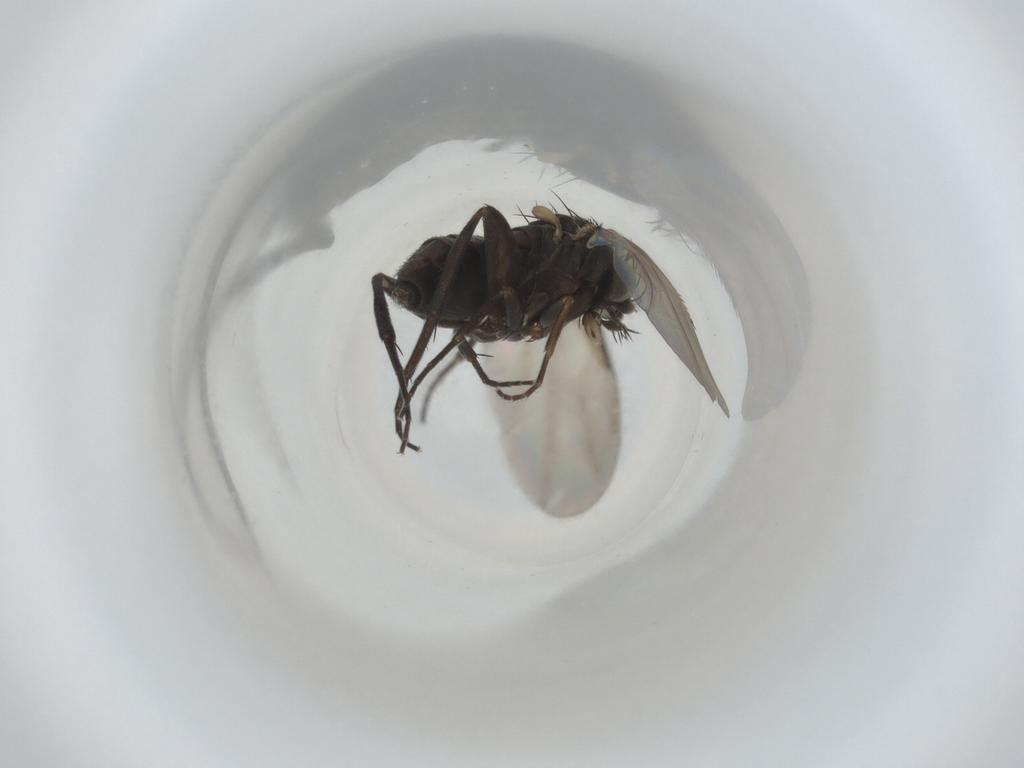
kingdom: Animalia
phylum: Arthropoda
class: Insecta
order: Diptera
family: Phoridae
